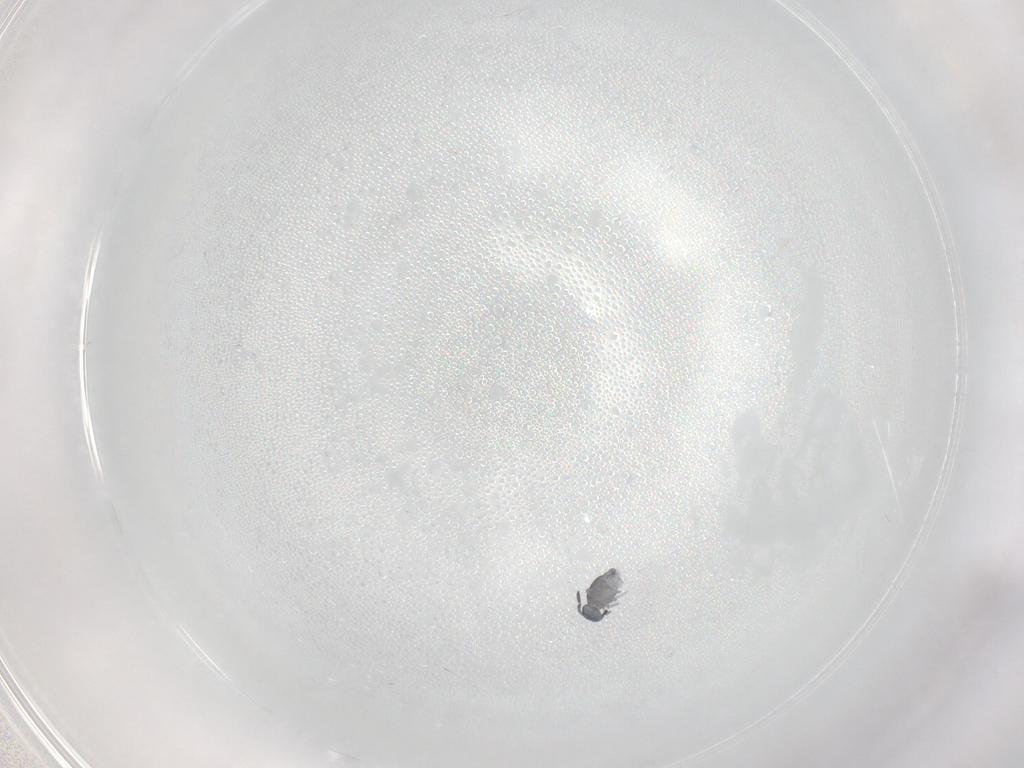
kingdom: Animalia
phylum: Arthropoda
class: Collembola
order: Symphypleona
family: Katiannidae
